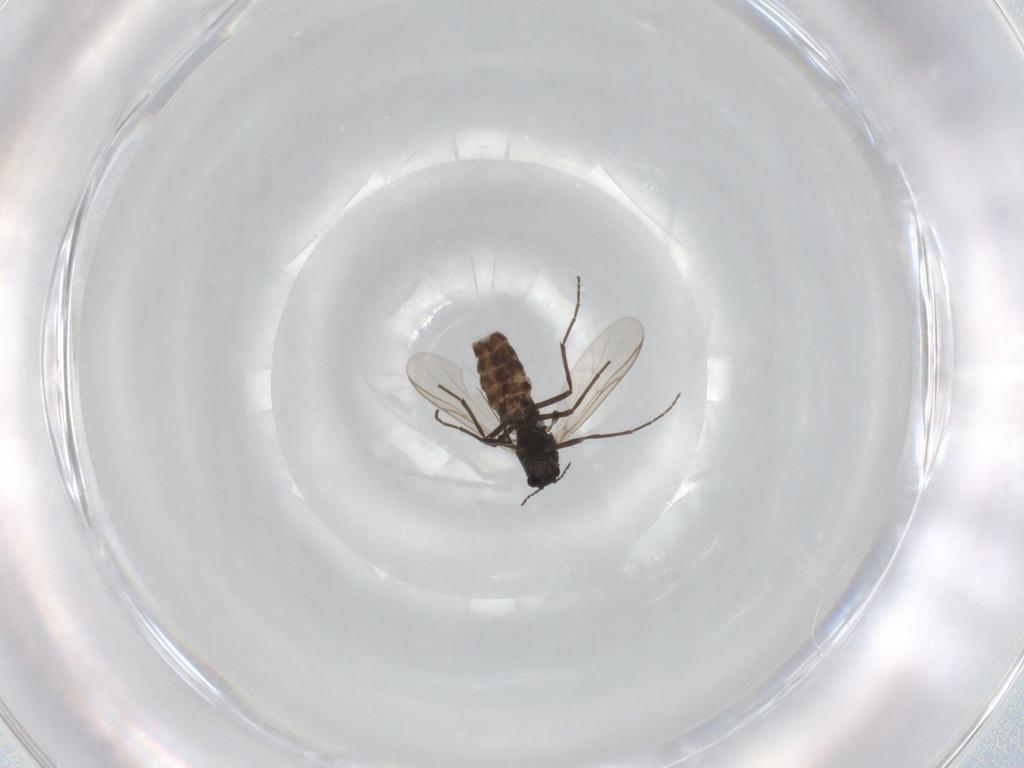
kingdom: Animalia
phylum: Arthropoda
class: Insecta
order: Diptera
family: Chironomidae
